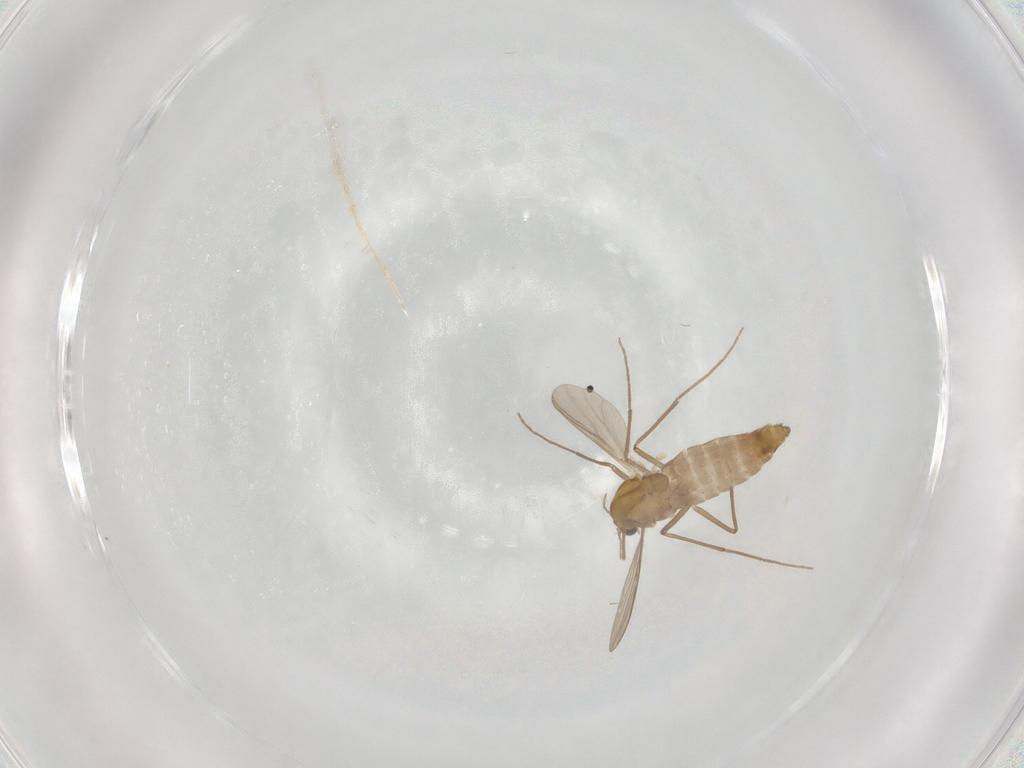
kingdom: Animalia
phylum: Arthropoda
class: Insecta
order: Diptera
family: Chironomidae
